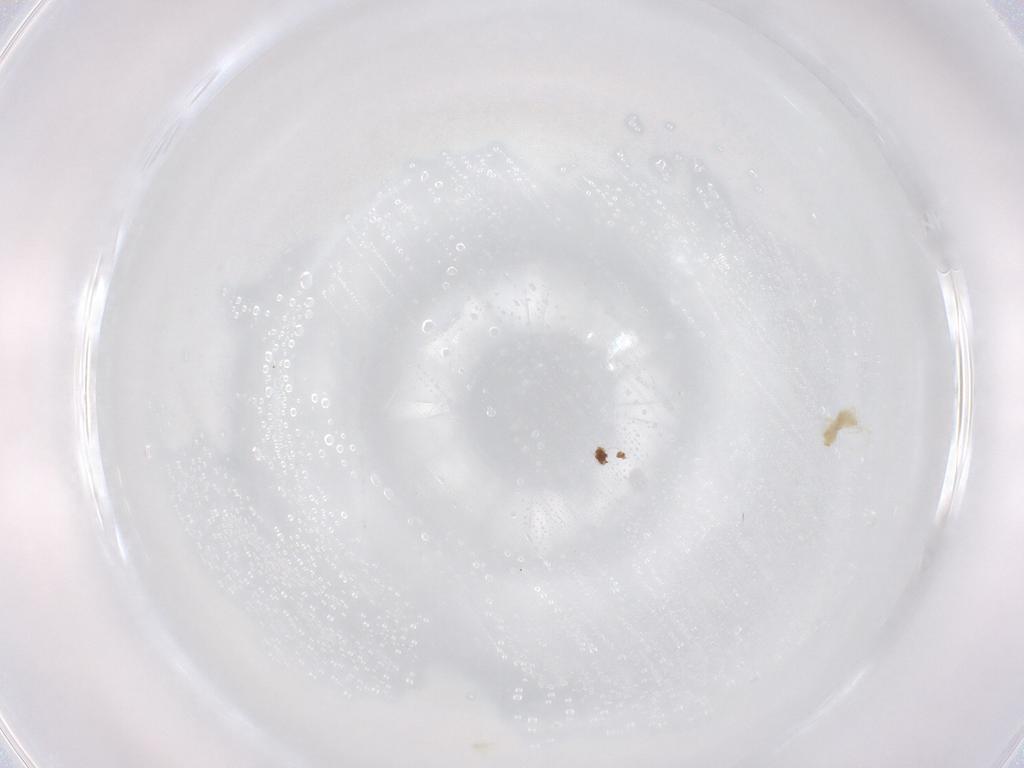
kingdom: Animalia
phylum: Arthropoda
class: Arachnida
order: Trombidiformes
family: Eupodidae
